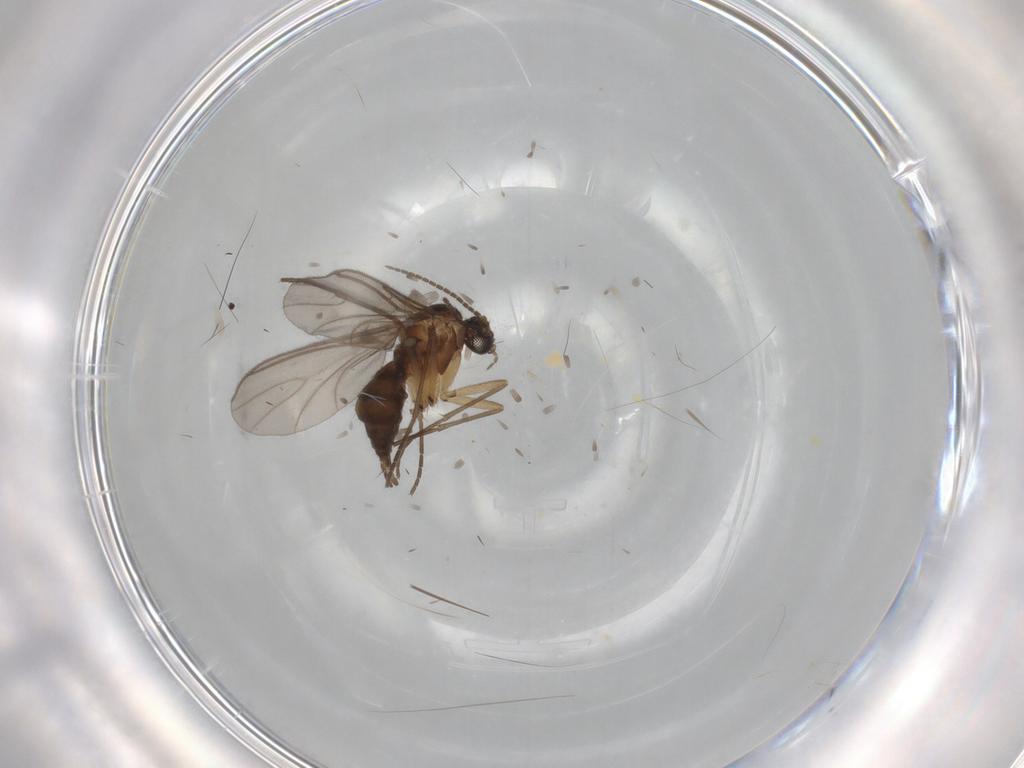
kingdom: Animalia
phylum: Arthropoda
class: Insecta
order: Diptera
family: Sciaridae
